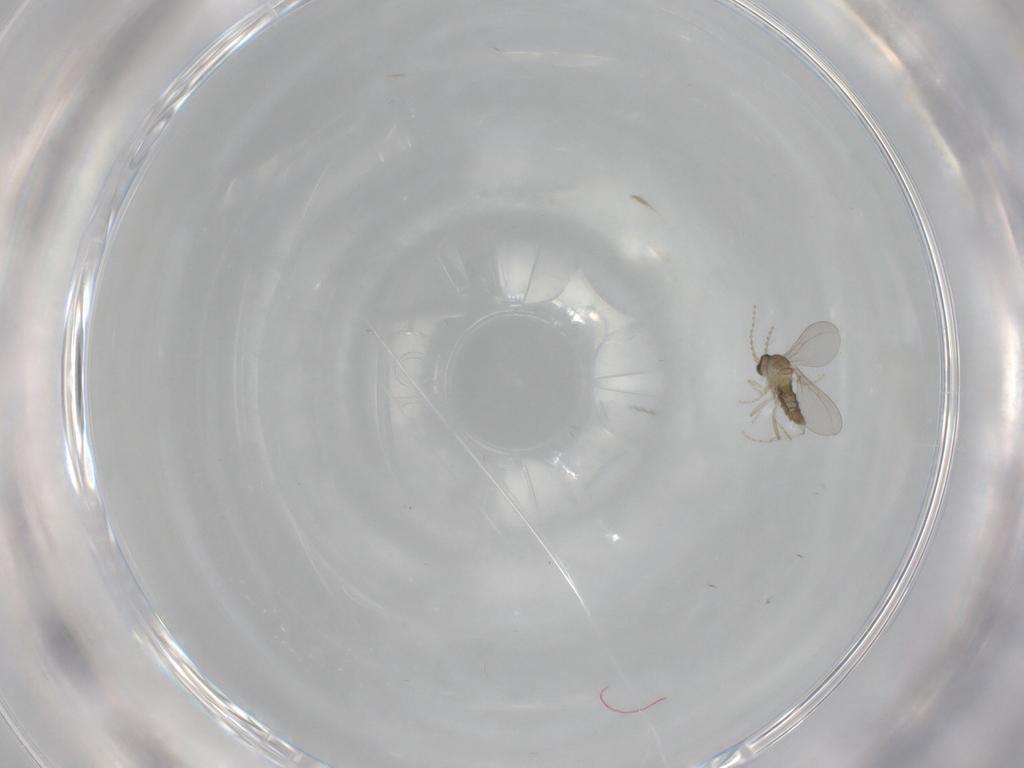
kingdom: Animalia
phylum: Arthropoda
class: Insecta
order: Diptera
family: Cecidomyiidae
